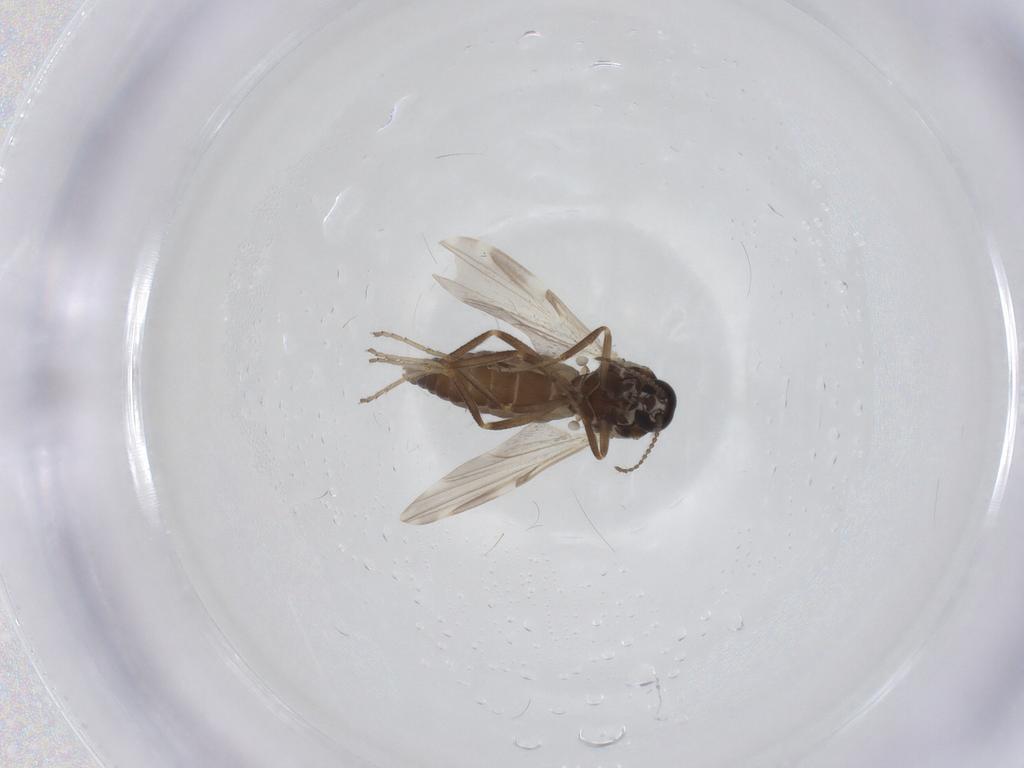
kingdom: Animalia
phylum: Arthropoda
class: Insecta
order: Diptera
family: Ceratopogonidae
